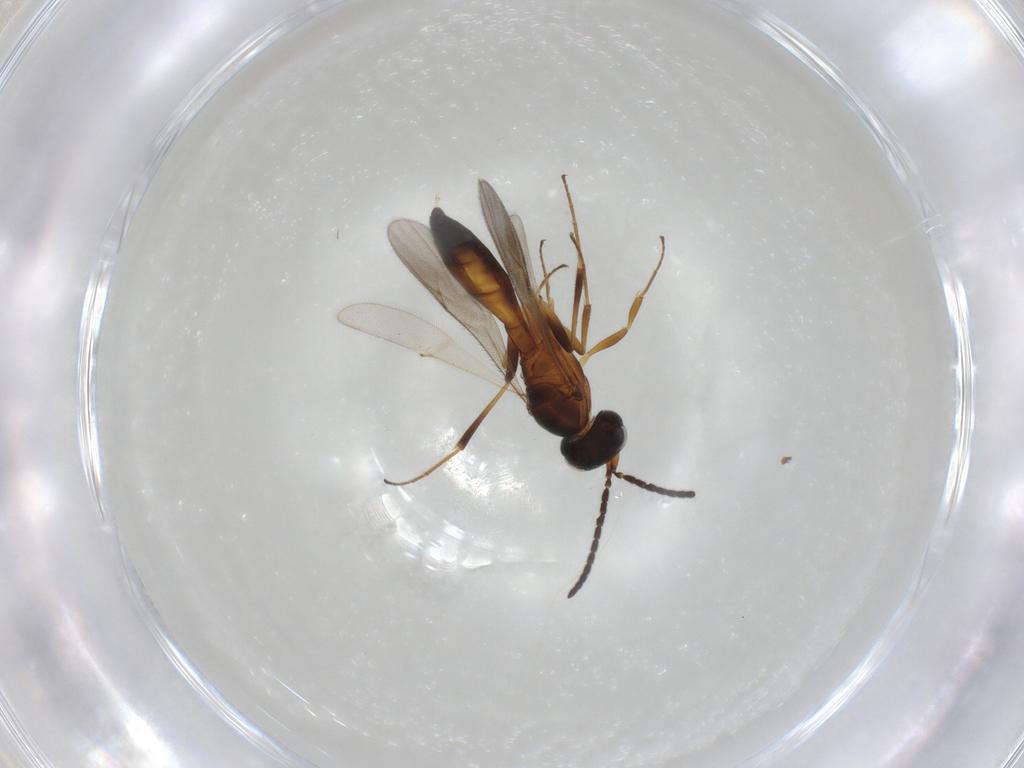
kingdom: Animalia
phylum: Arthropoda
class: Insecta
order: Hymenoptera
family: Scelionidae
